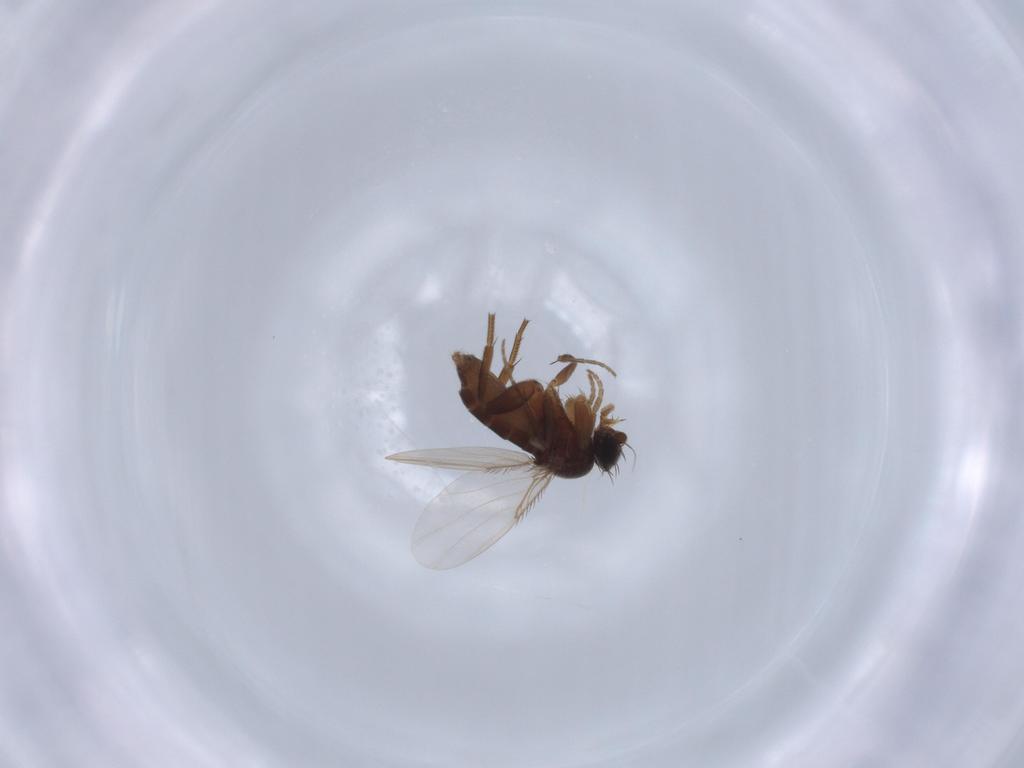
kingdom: Animalia
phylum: Arthropoda
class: Insecta
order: Diptera
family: Phoridae
